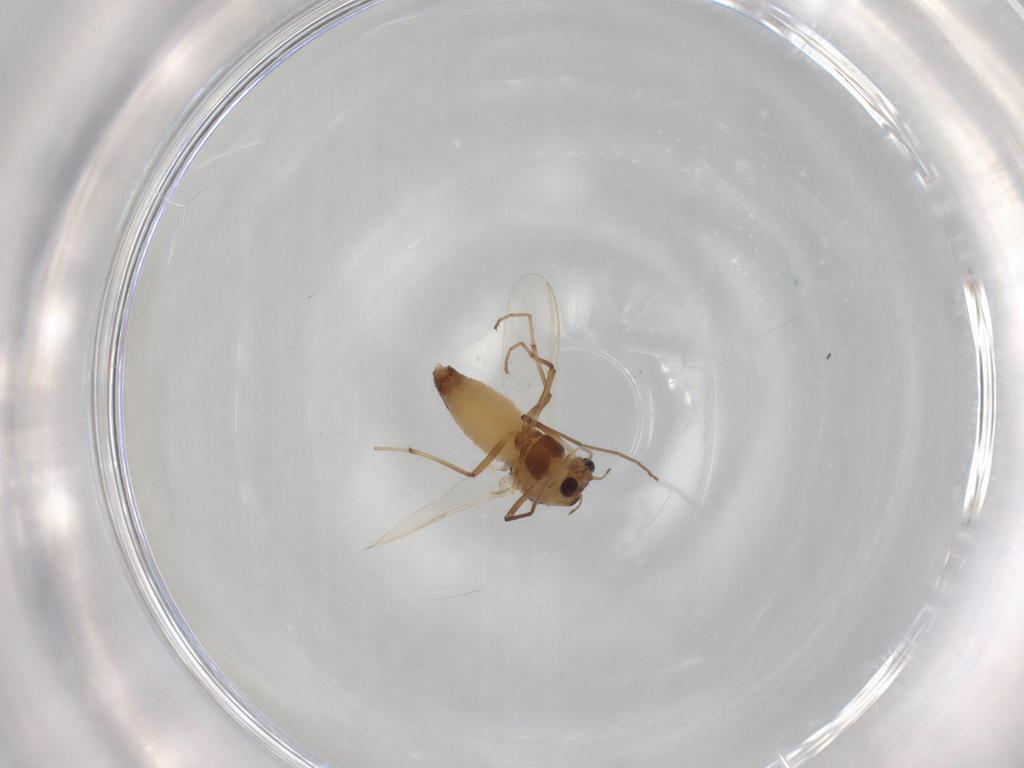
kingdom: Animalia
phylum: Arthropoda
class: Insecta
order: Diptera
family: Chironomidae
